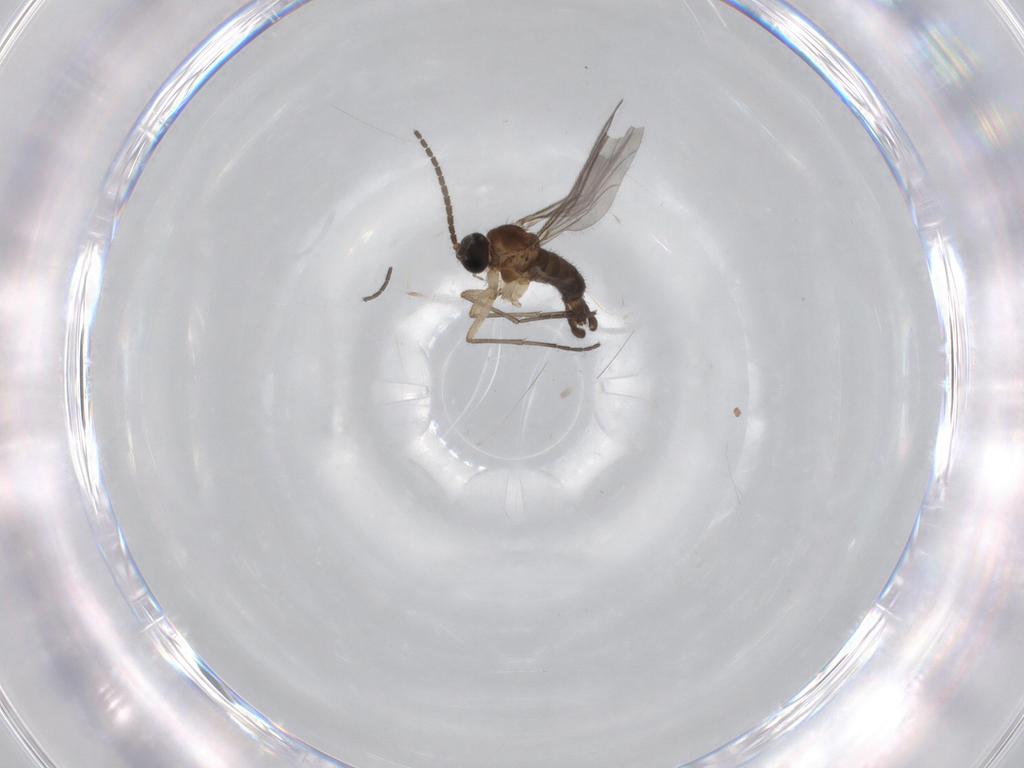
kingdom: Animalia
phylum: Arthropoda
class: Insecta
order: Diptera
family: Sciaridae
